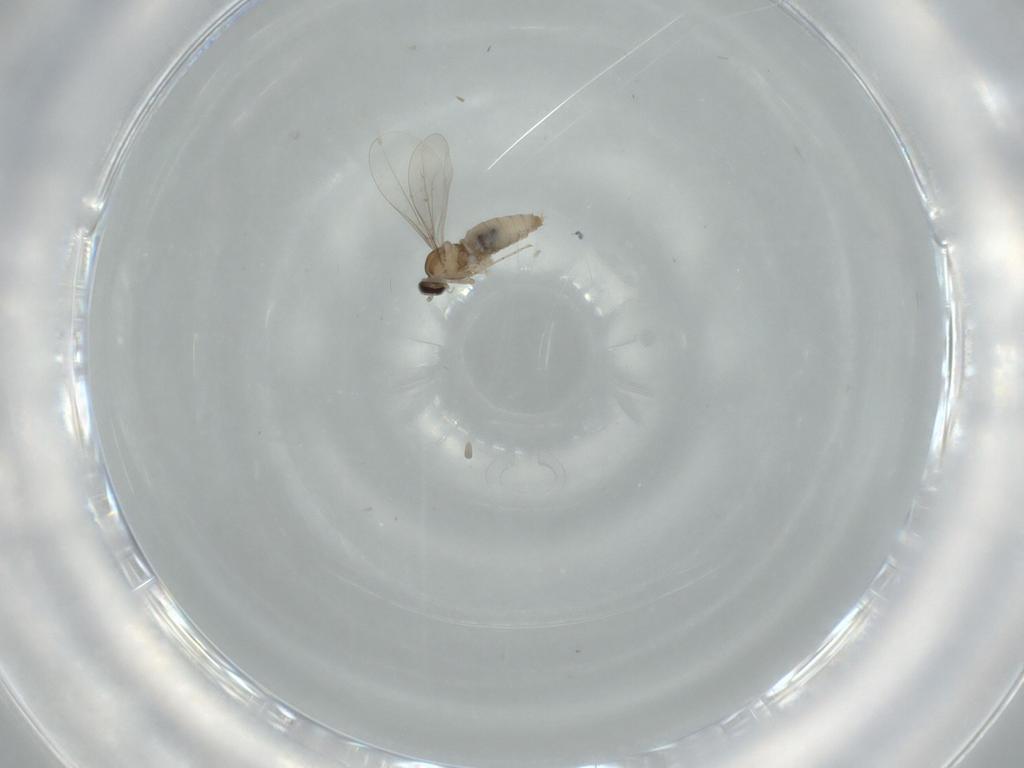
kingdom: Animalia
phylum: Arthropoda
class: Insecta
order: Diptera
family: Cecidomyiidae
